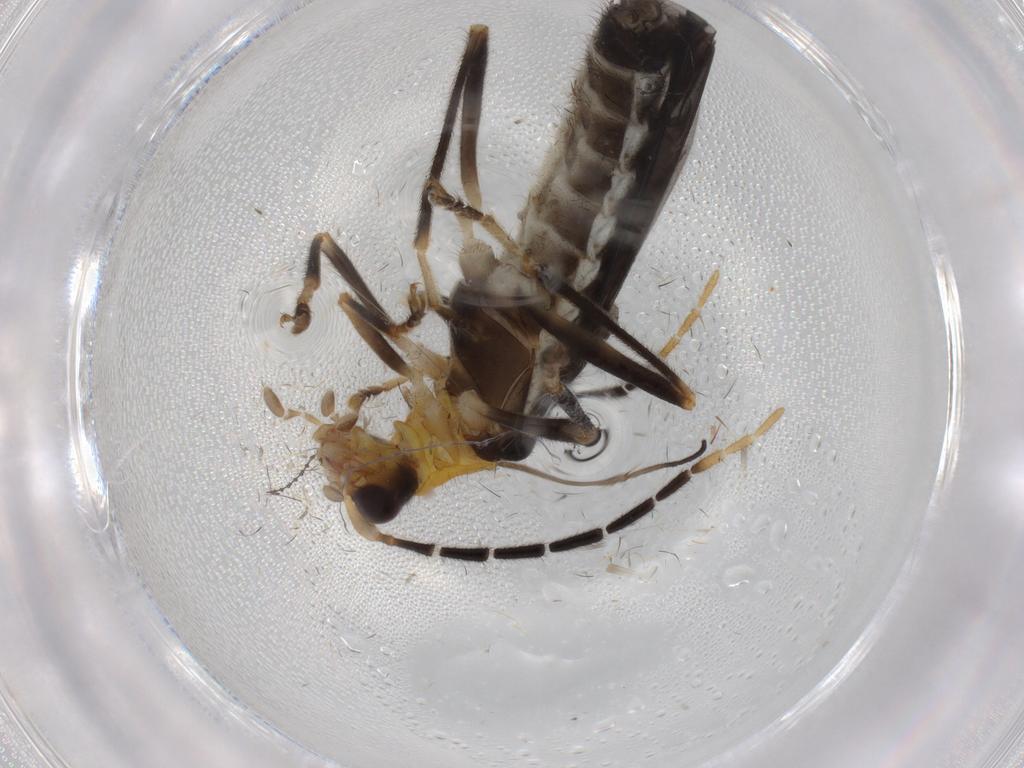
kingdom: Animalia
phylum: Arthropoda
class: Insecta
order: Coleoptera
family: Cantharidae
